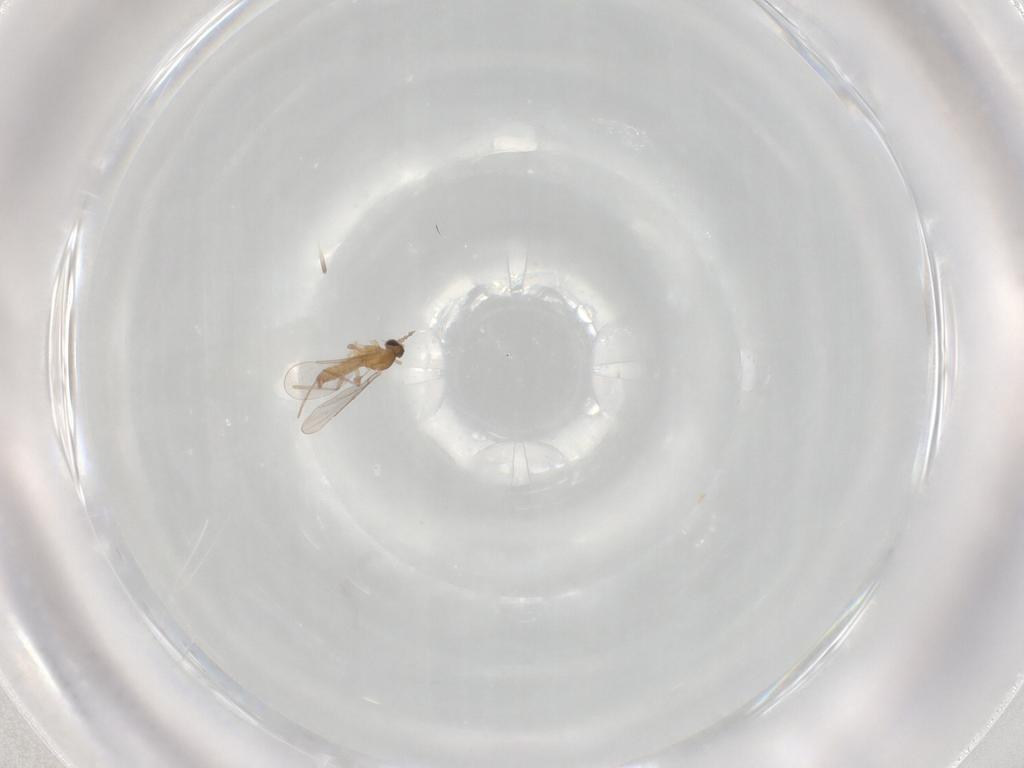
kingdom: Animalia
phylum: Arthropoda
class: Insecta
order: Diptera
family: Cecidomyiidae
